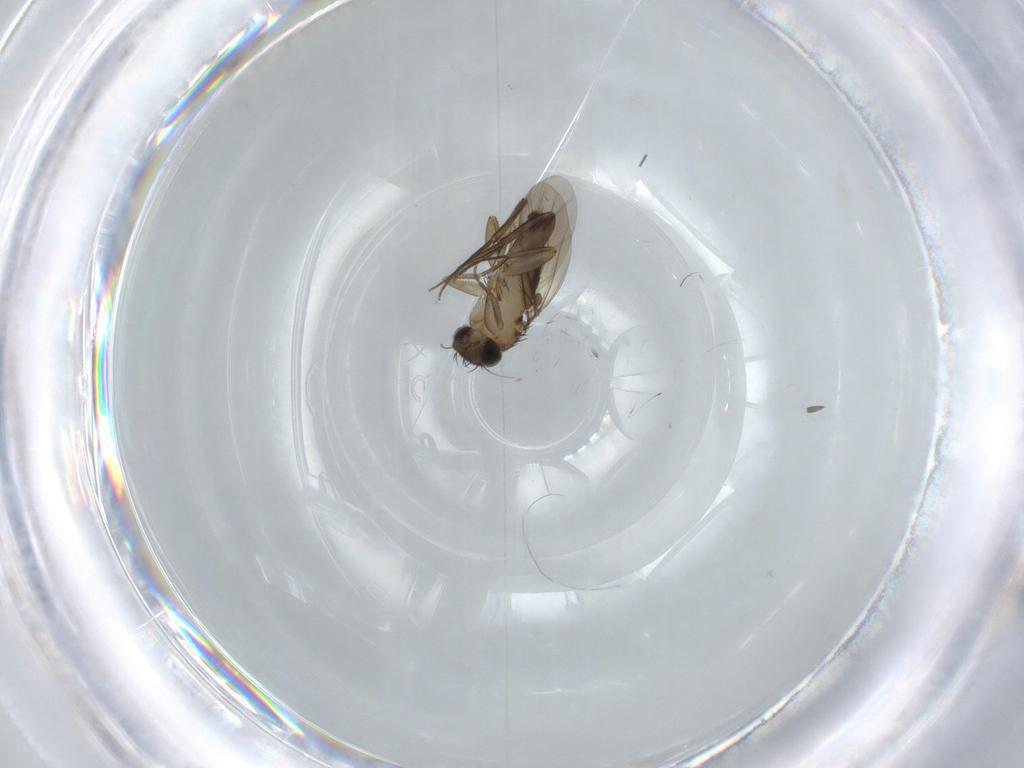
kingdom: Animalia
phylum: Arthropoda
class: Insecta
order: Diptera
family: Phoridae
